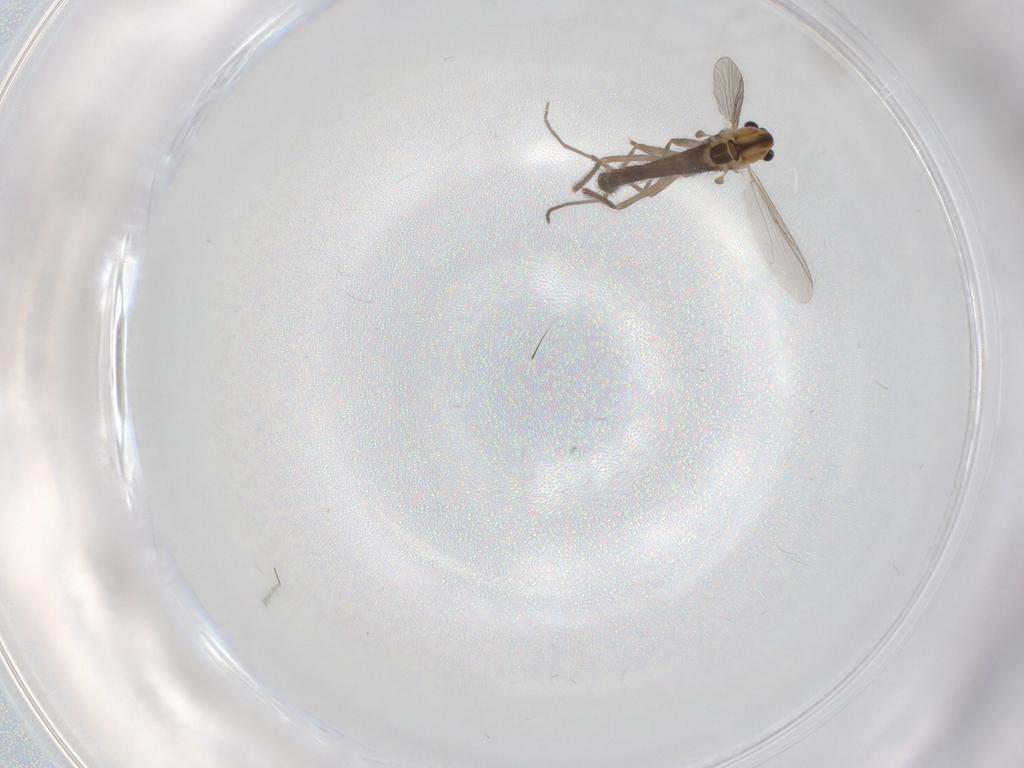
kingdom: Animalia
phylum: Arthropoda
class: Insecta
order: Diptera
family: Chironomidae
